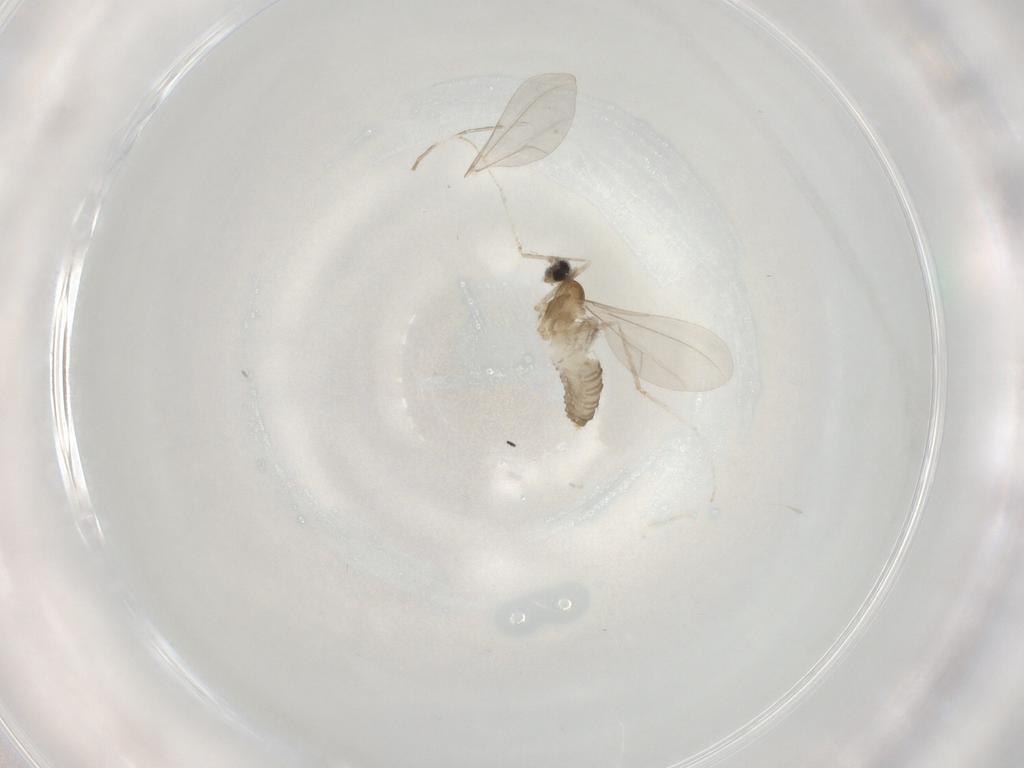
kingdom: Animalia
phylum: Arthropoda
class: Insecta
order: Diptera
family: Cecidomyiidae
